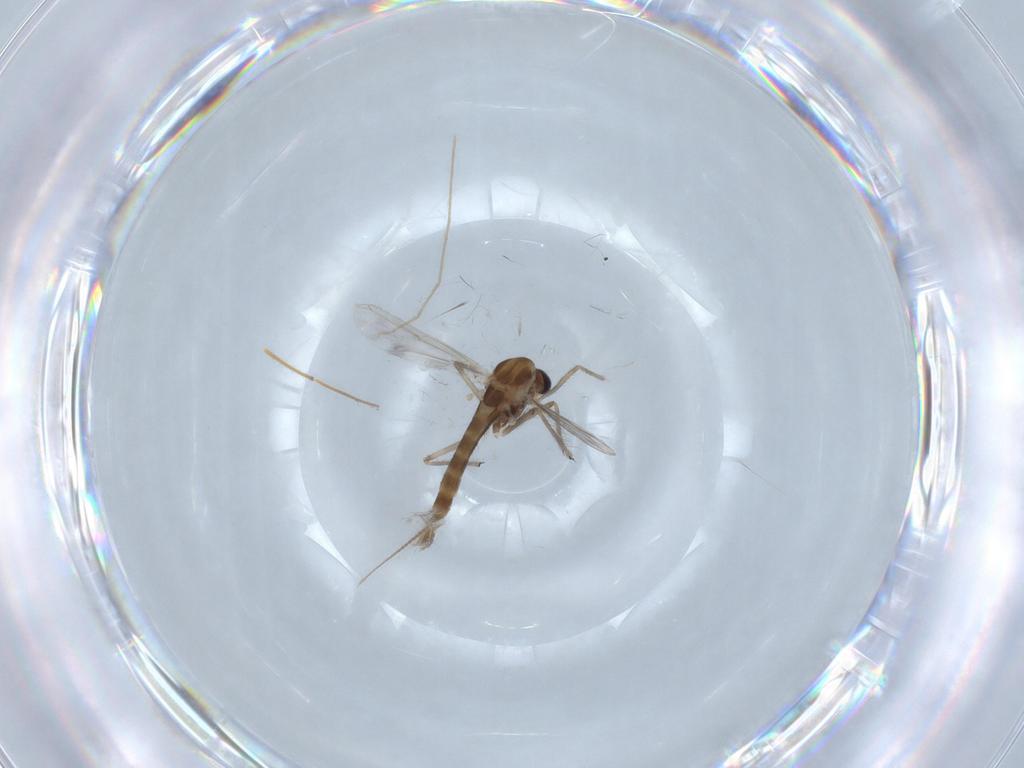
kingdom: Animalia
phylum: Arthropoda
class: Insecta
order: Diptera
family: Chironomidae
